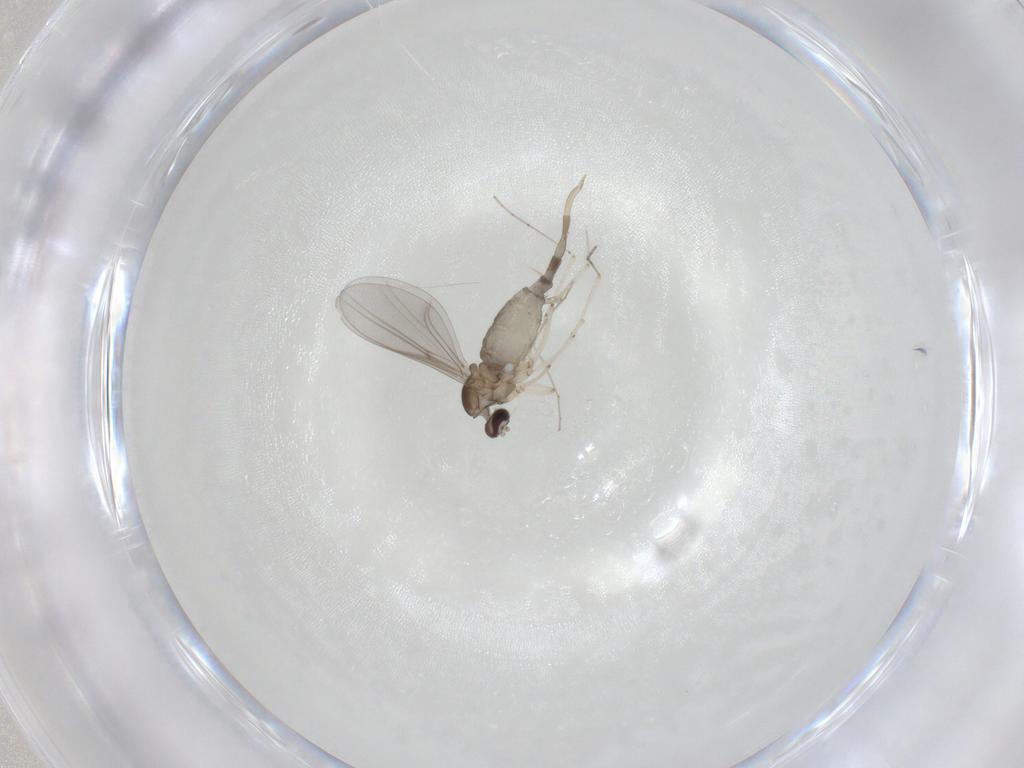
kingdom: Animalia
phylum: Arthropoda
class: Insecta
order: Diptera
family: Cecidomyiidae
